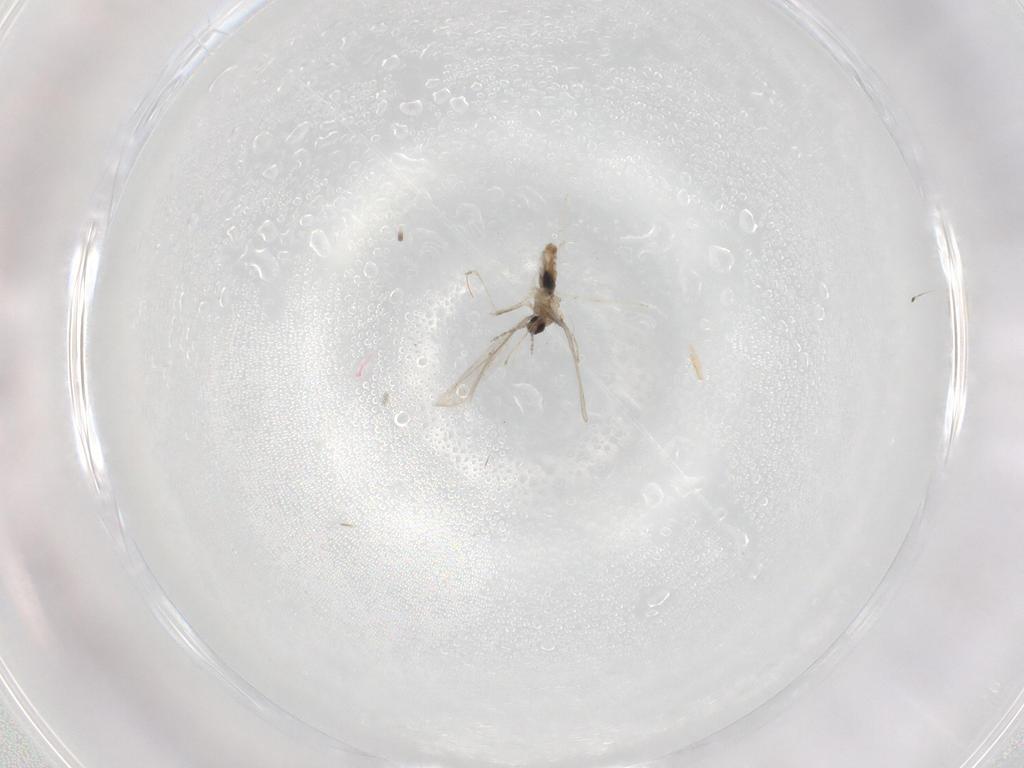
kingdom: Animalia
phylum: Arthropoda
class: Insecta
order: Diptera
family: Cecidomyiidae
